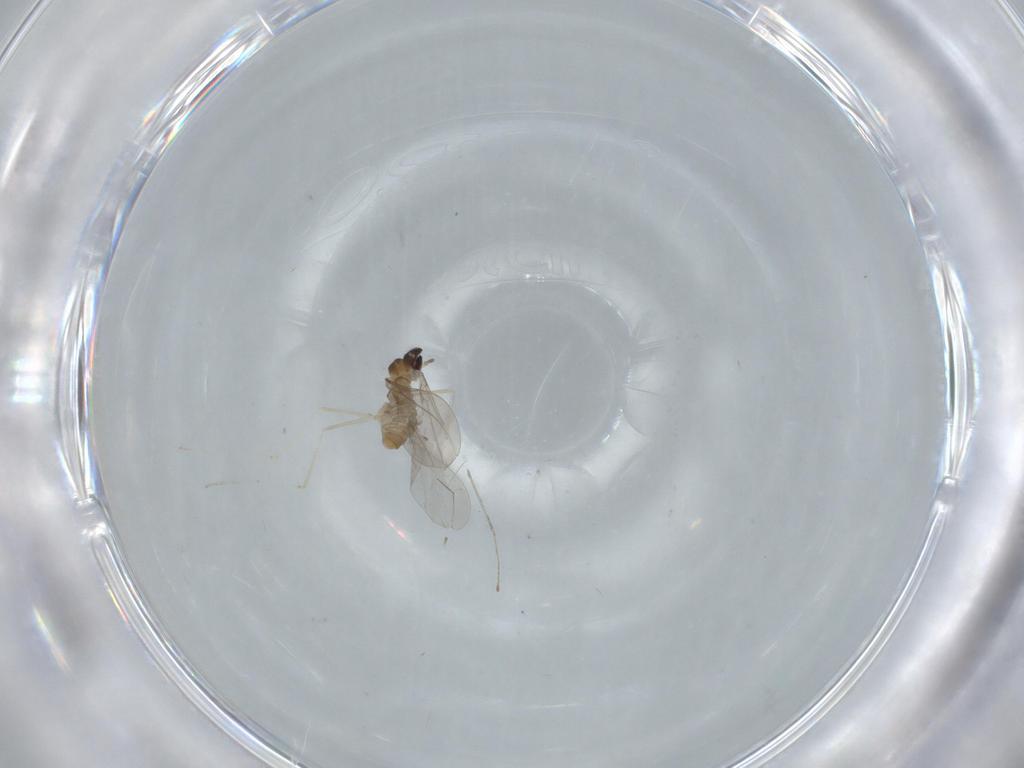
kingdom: Animalia
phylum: Arthropoda
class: Insecta
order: Diptera
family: Cecidomyiidae
